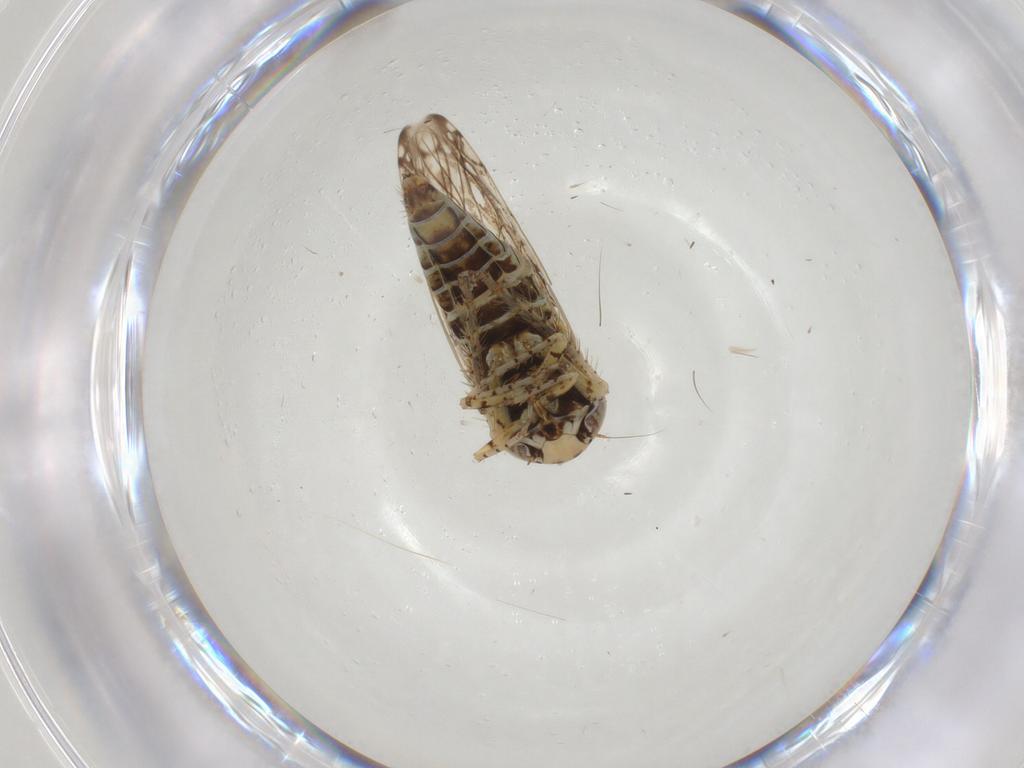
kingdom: Animalia
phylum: Arthropoda
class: Insecta
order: Hemiptera
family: Cicadellidae
